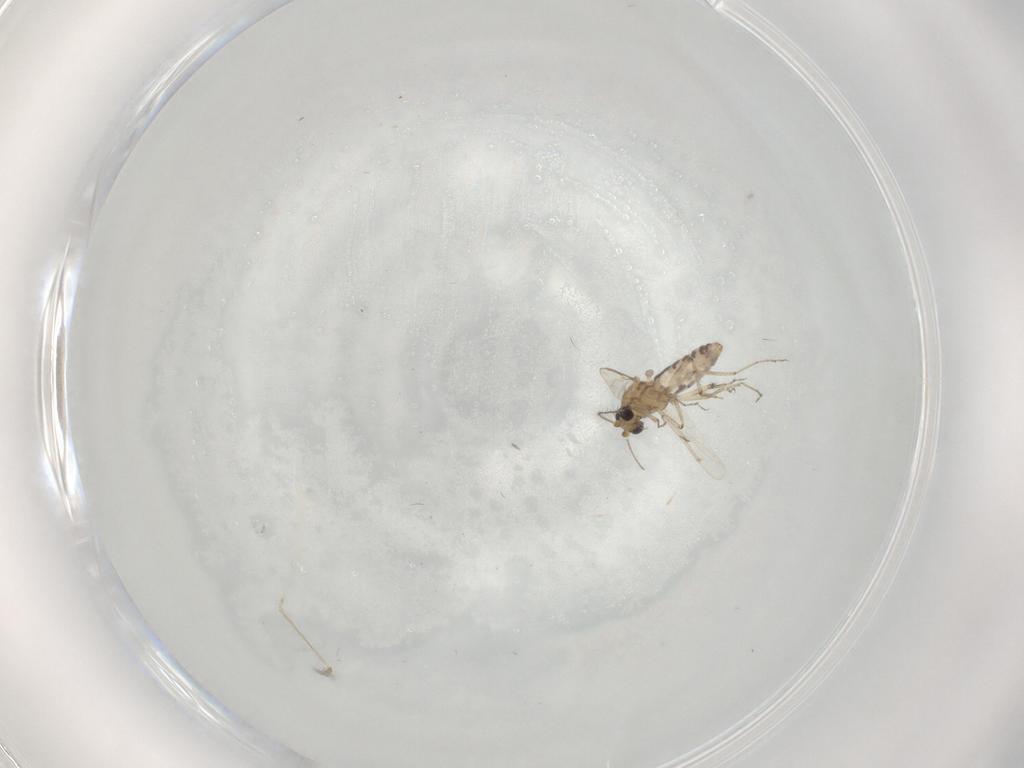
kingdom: Animalia
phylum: Arthropoda
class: Insecta
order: Diptera
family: Ceratopogonidae
